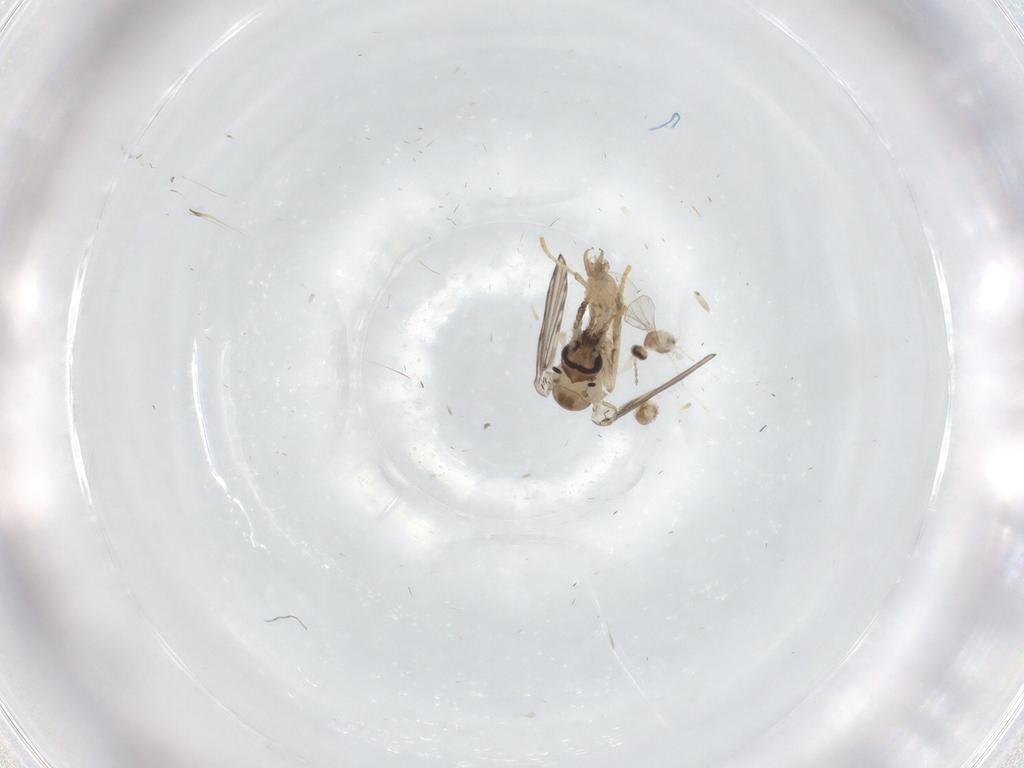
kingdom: Animalia
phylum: Arthropoda
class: Insecta
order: Diptera
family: Psychodidae
